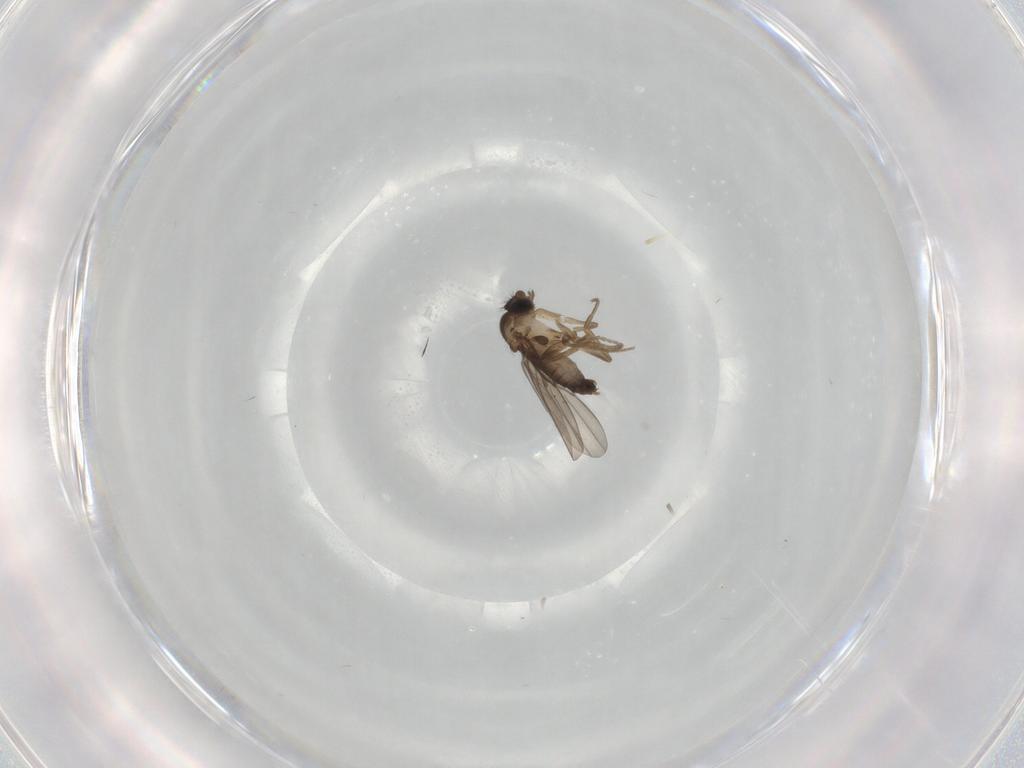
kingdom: Animalia
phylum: Arthropoda
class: Insecta
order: Diptera
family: Phoridae
